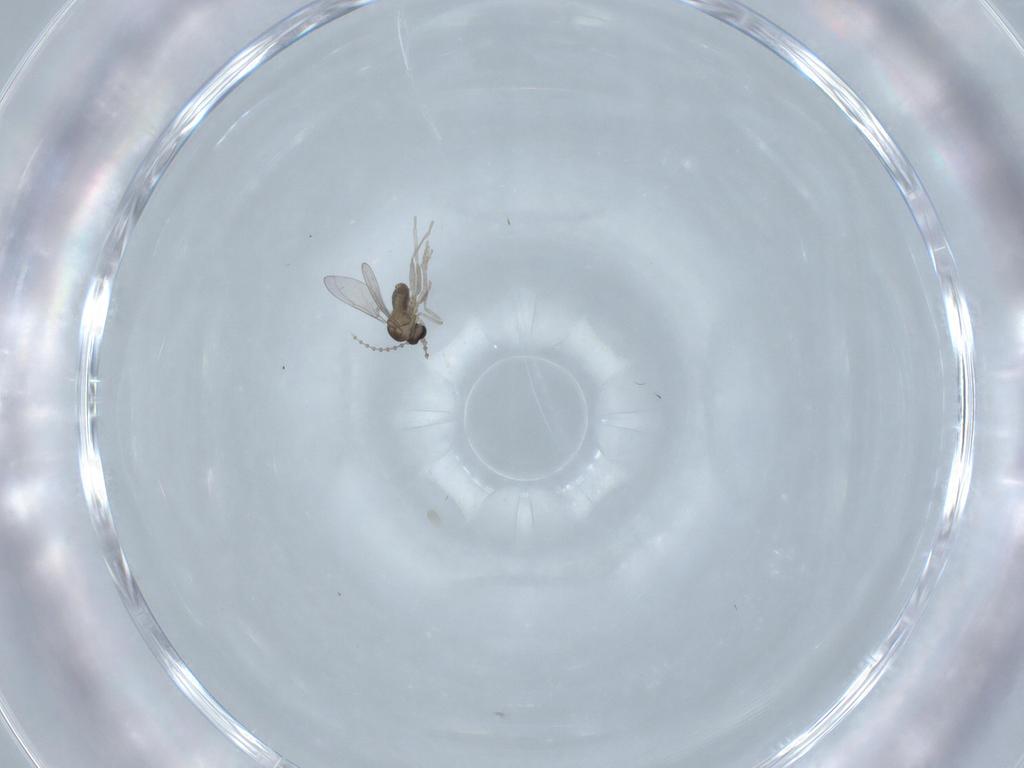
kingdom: Animalia
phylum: Arthropoda
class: Insecta
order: Diptera
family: Cecidomyiidae
